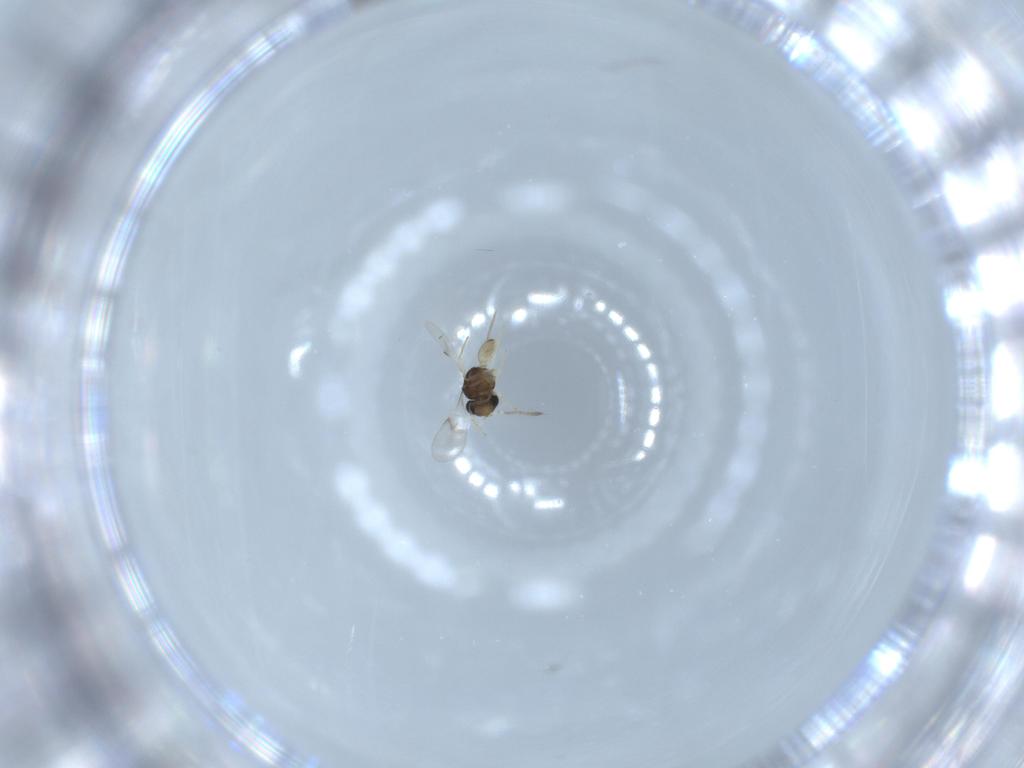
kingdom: Animalia
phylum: Arthropoda
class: Insecta
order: Hymenoptera
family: Scelionidae
